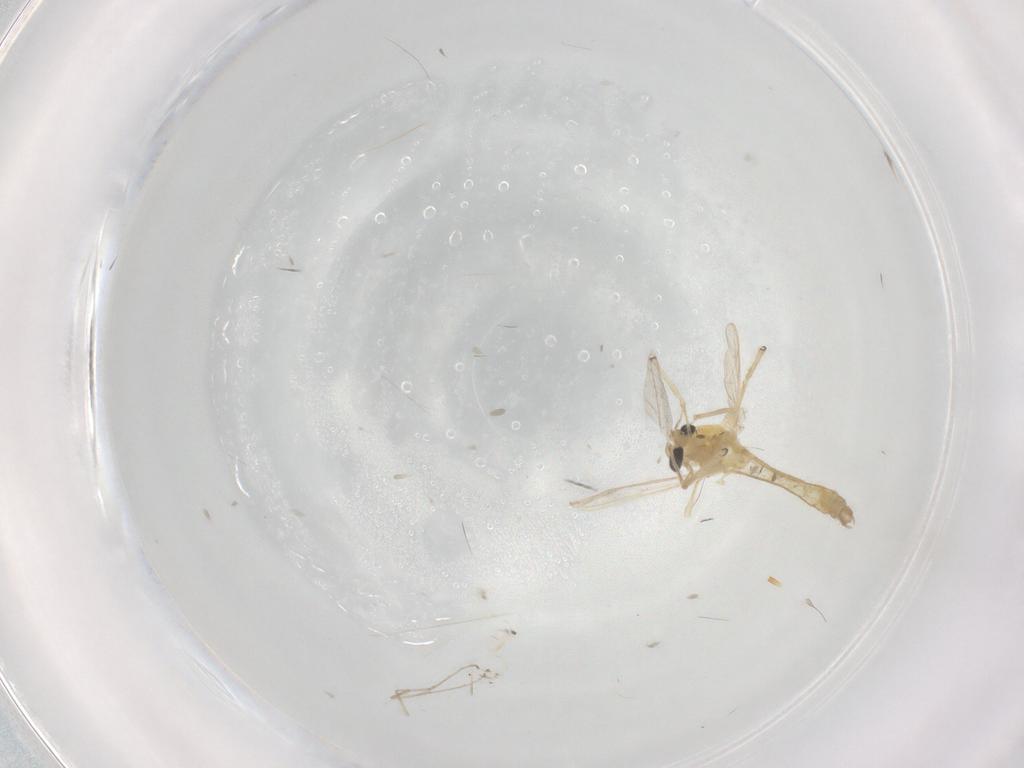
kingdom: Animalia
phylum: Arthropoda
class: Insecta
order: Diptera
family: Chironomidae
